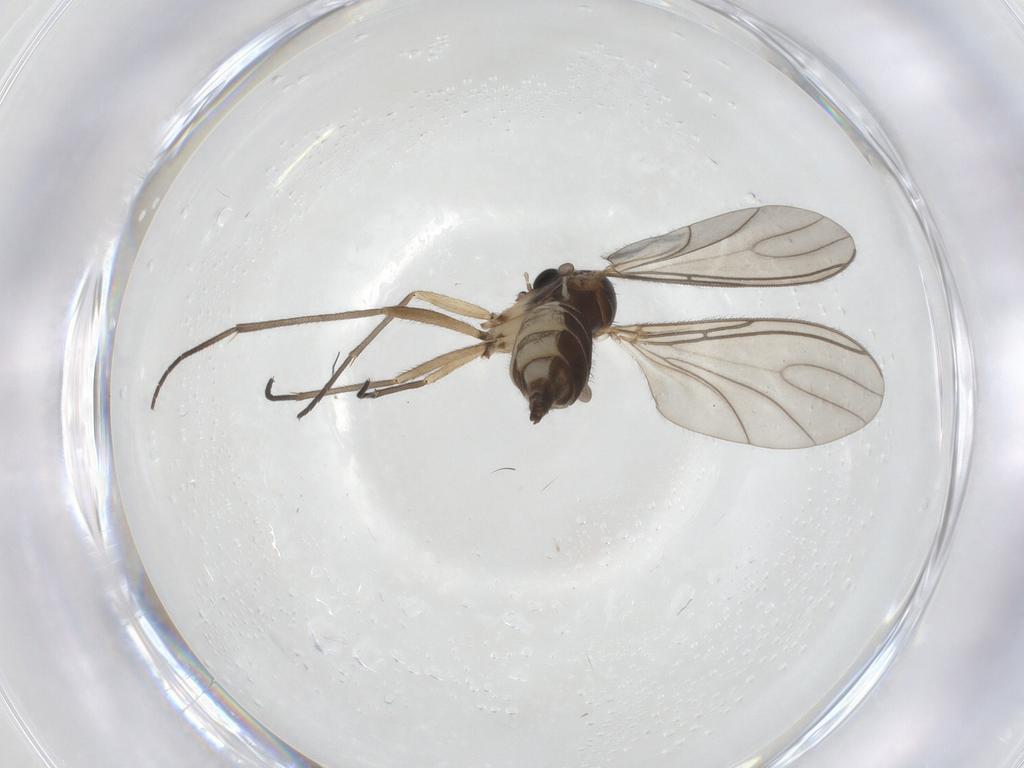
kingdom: Animalia
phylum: Arthropoda
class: Insecta
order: Diptera
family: Sciaridae
